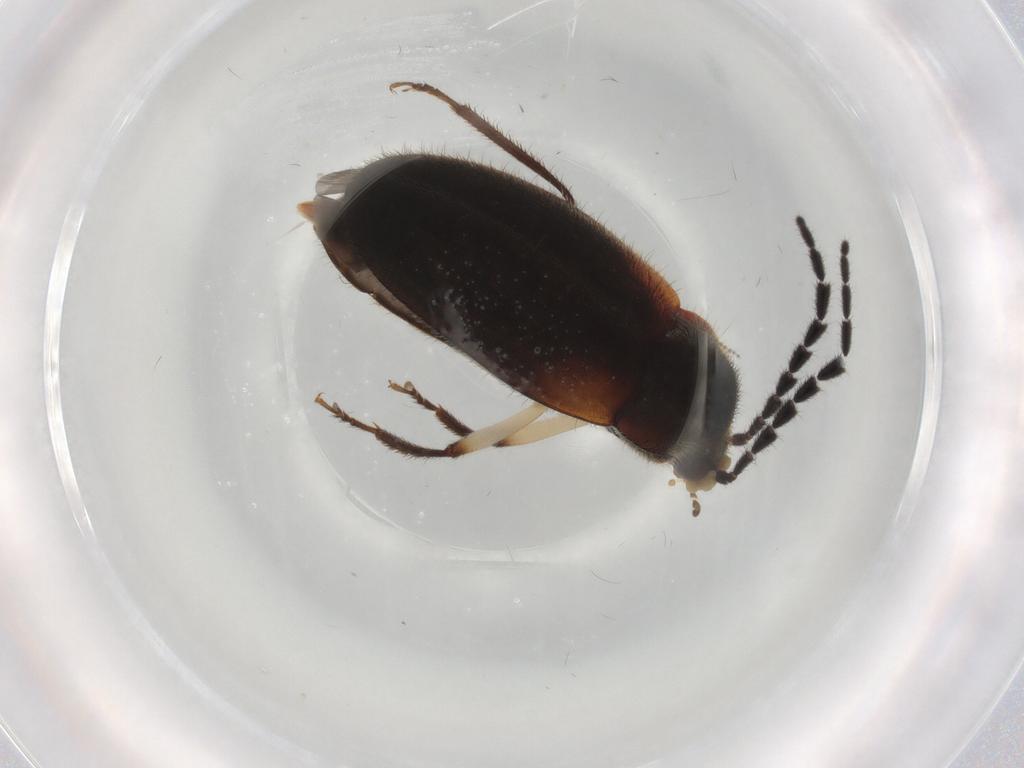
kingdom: Animalia
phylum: Arthropoda
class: Insecta
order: Coleoptera
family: Ptilodactylidae
